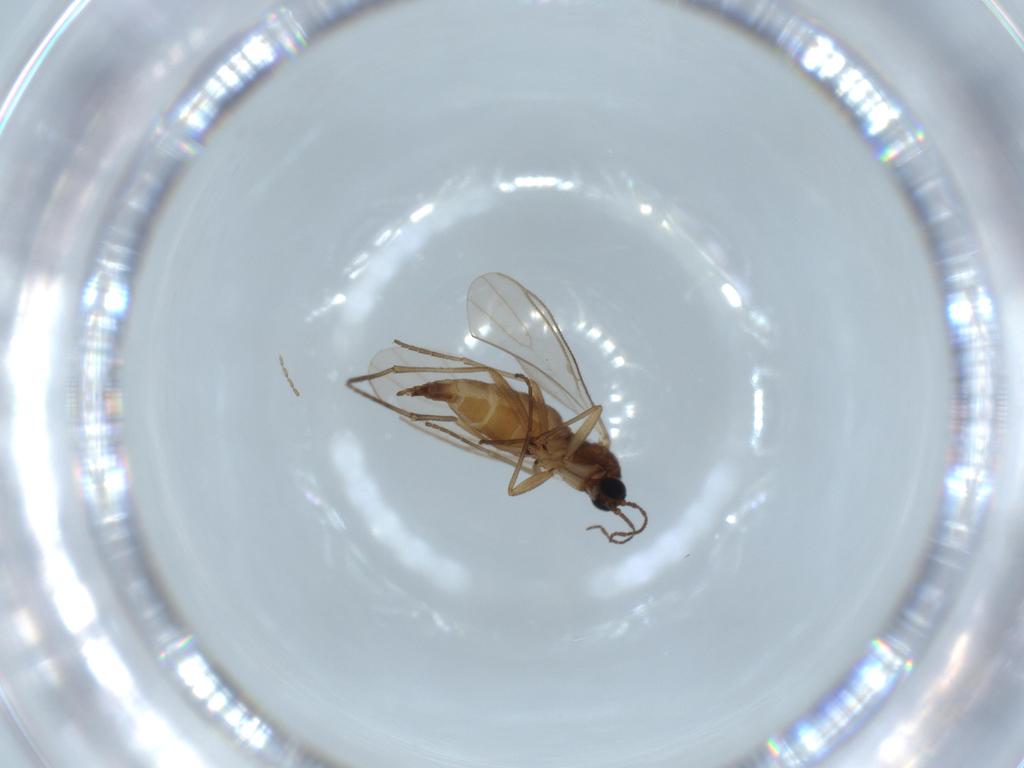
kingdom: Animalia
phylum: Arthropoda
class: Insecta
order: Diptera
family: Sciaridae
